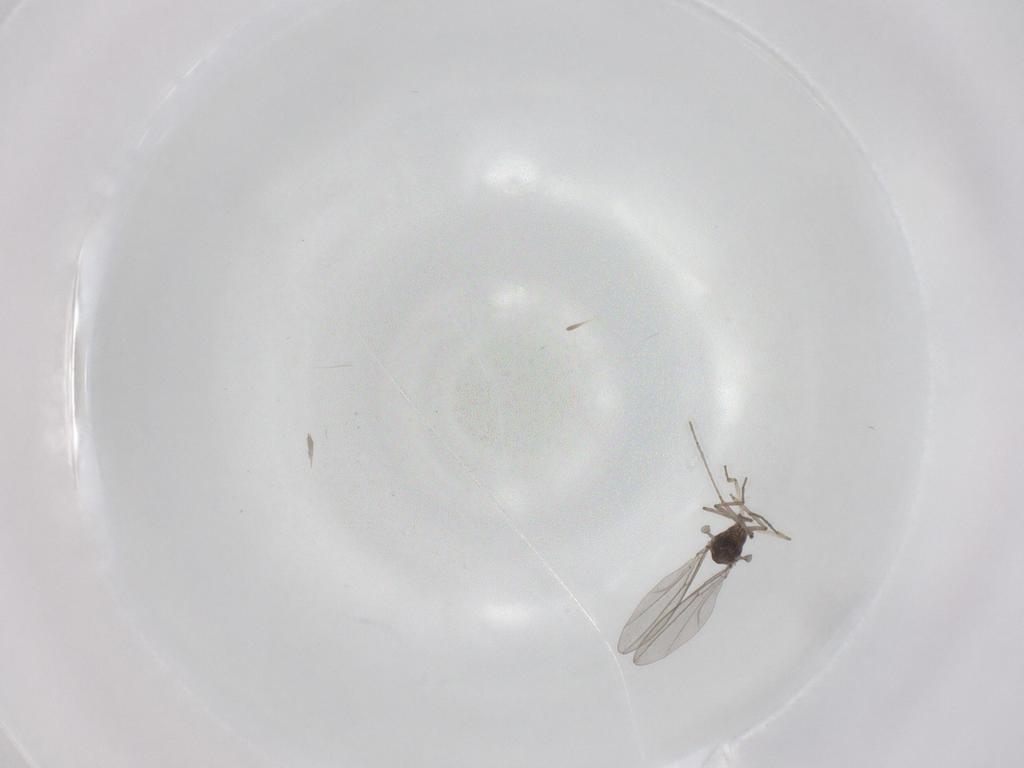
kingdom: Animalia
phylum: Arthropoda
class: Insecta
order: Diptera
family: Cecidomyiidae
